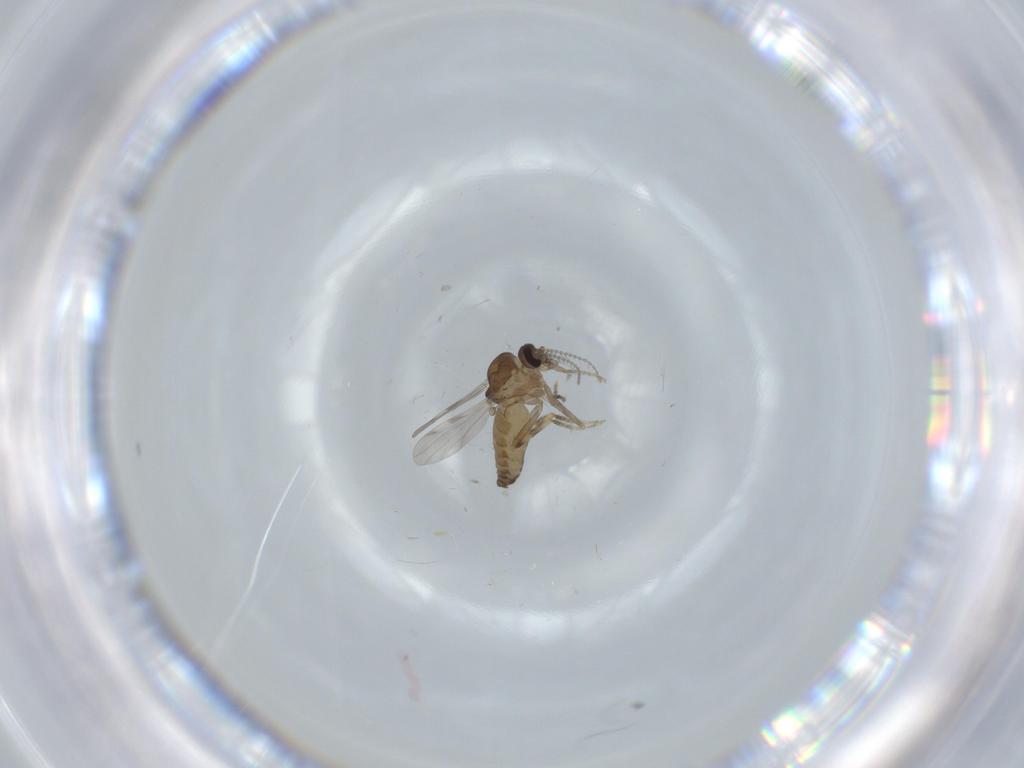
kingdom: Animalia
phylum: Arthropoda
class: Insecta
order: Diptera
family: Ceratopogonidae
